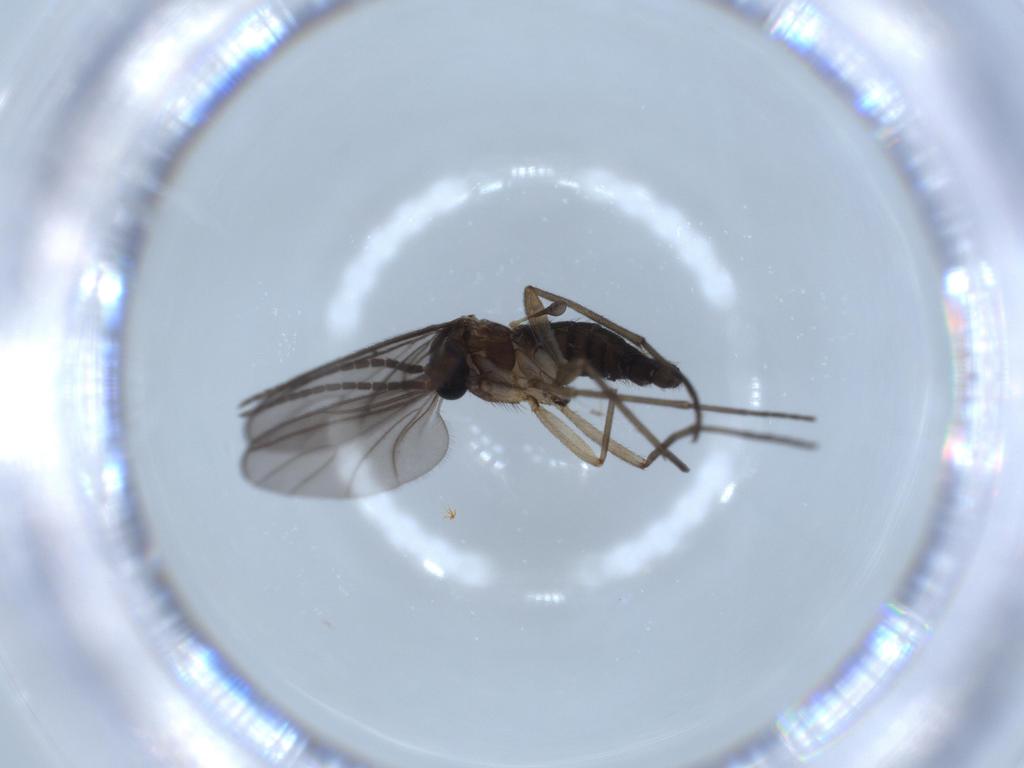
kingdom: Animalia
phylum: Arthropoda
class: Insecta
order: Diptera
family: Sciaridae
